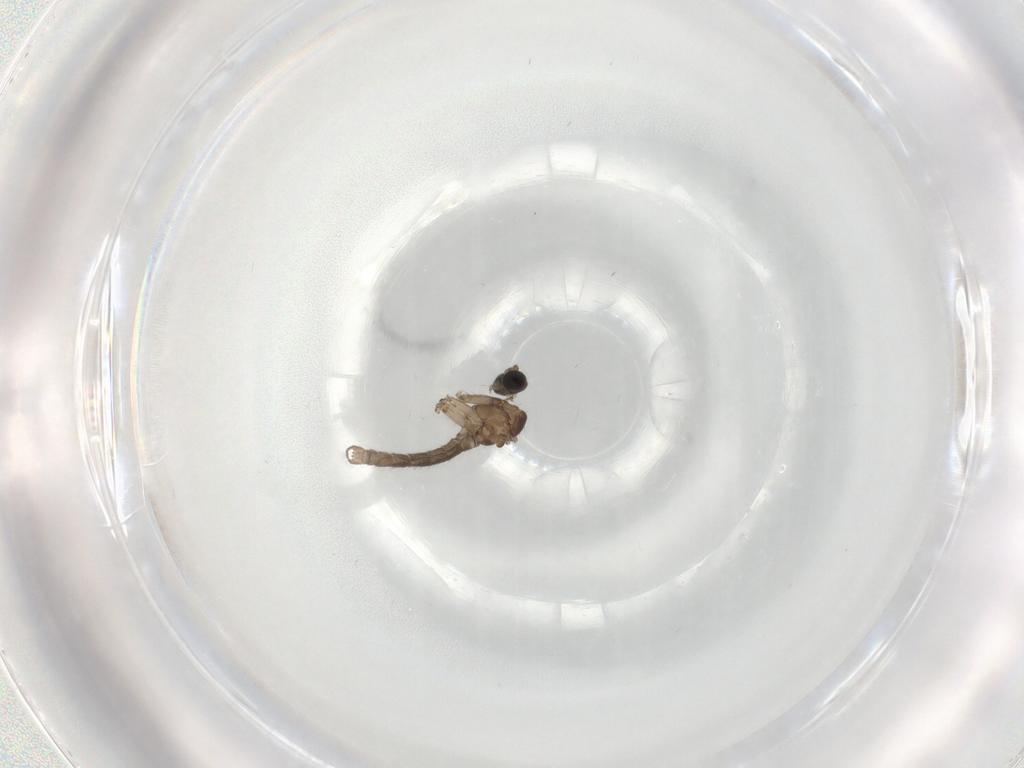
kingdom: Animalia
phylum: Arthropoda
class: Insecta
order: Diptera
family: Sciaridae
